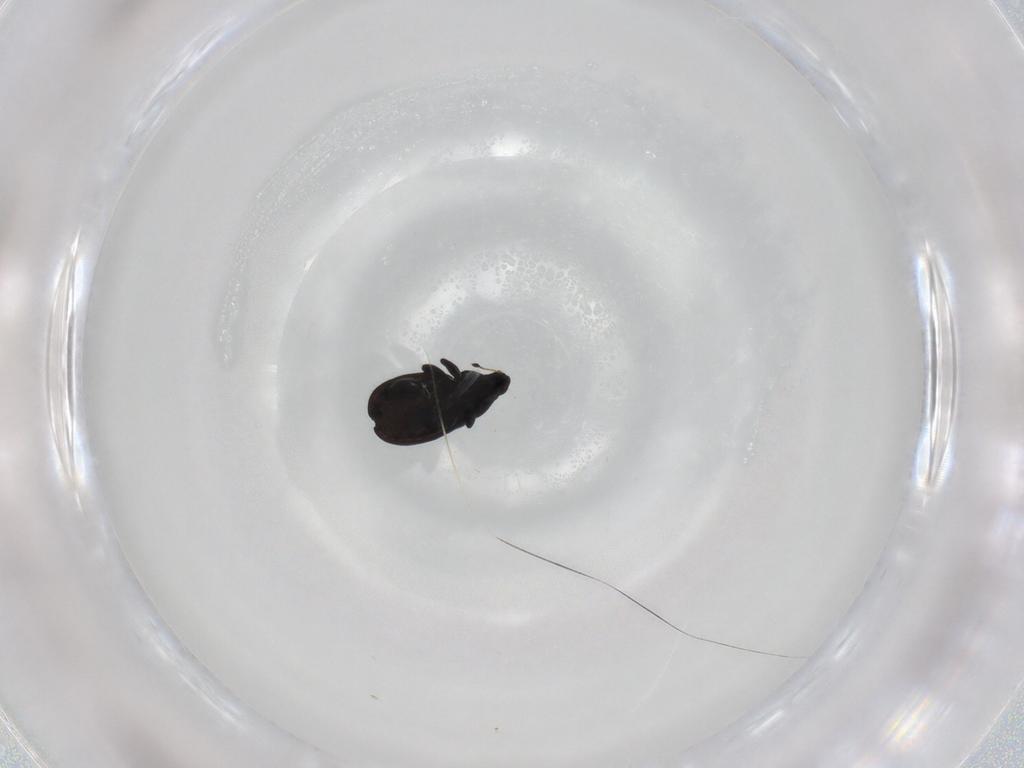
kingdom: Animalia
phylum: Arthropoda
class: Insecta
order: Coleoptera
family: Curculionidae
